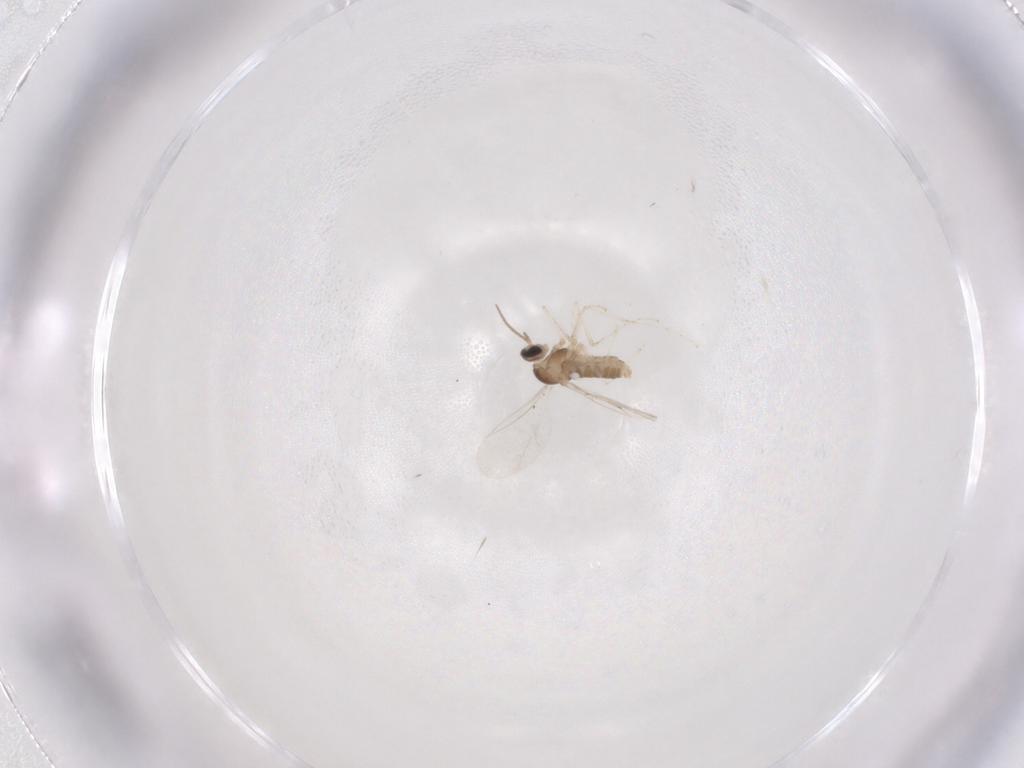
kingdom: Animalia
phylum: Arthropoda
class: Insecta
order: Diptera
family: Cecidomyiidae
